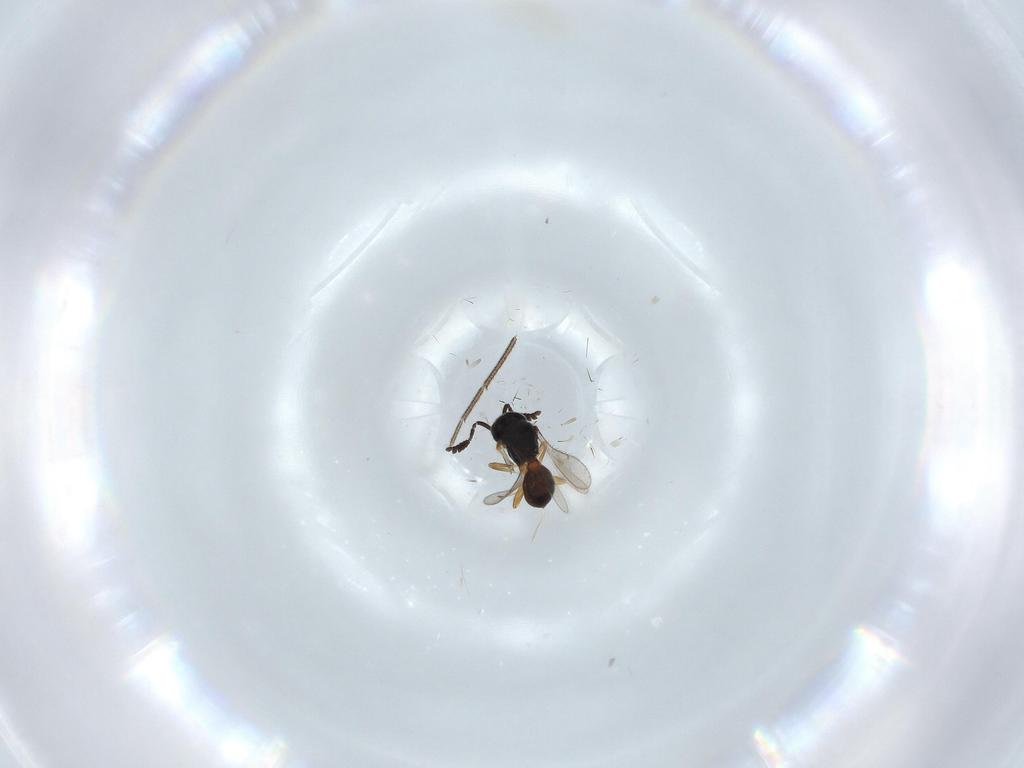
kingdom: Animalia
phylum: Arthropoda
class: Insecta
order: Hymenoptera
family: Scelionidae
